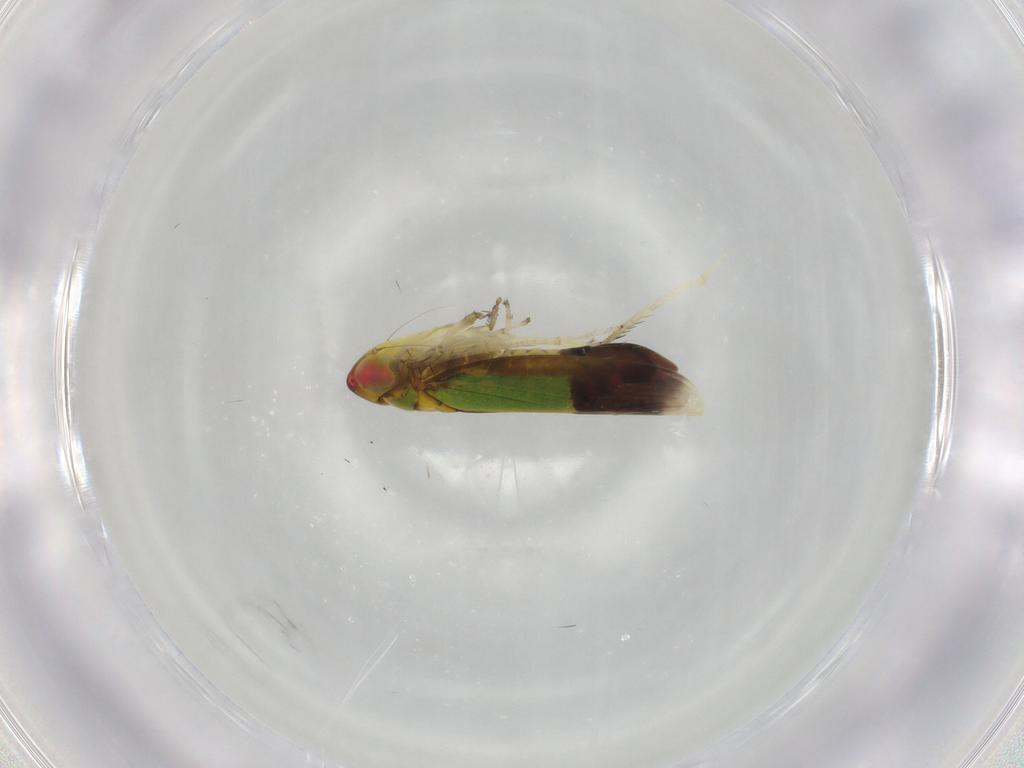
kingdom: Animalia
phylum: Arthropoda
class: Insecta
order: Hemiptera
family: Cicadellidae
